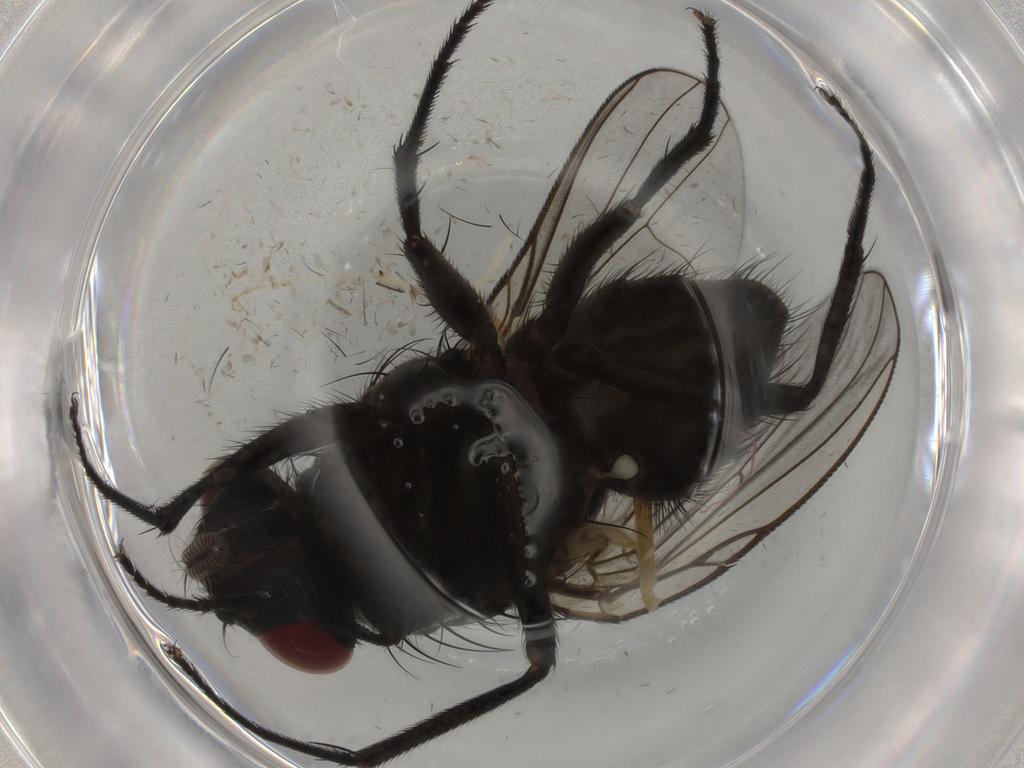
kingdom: Animalia
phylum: Arthropoda
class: Insecta
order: Diptera
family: Muscidae
